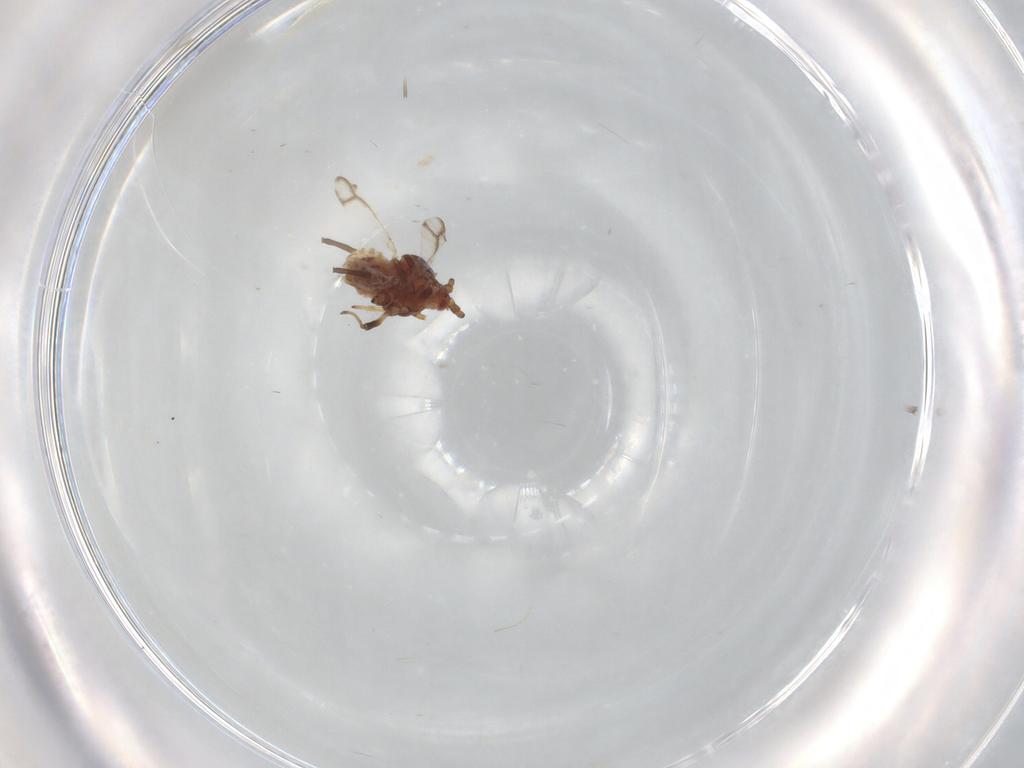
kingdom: Animalia
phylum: Arthropoda
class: Insecta
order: Hemiptera
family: Aphididae
